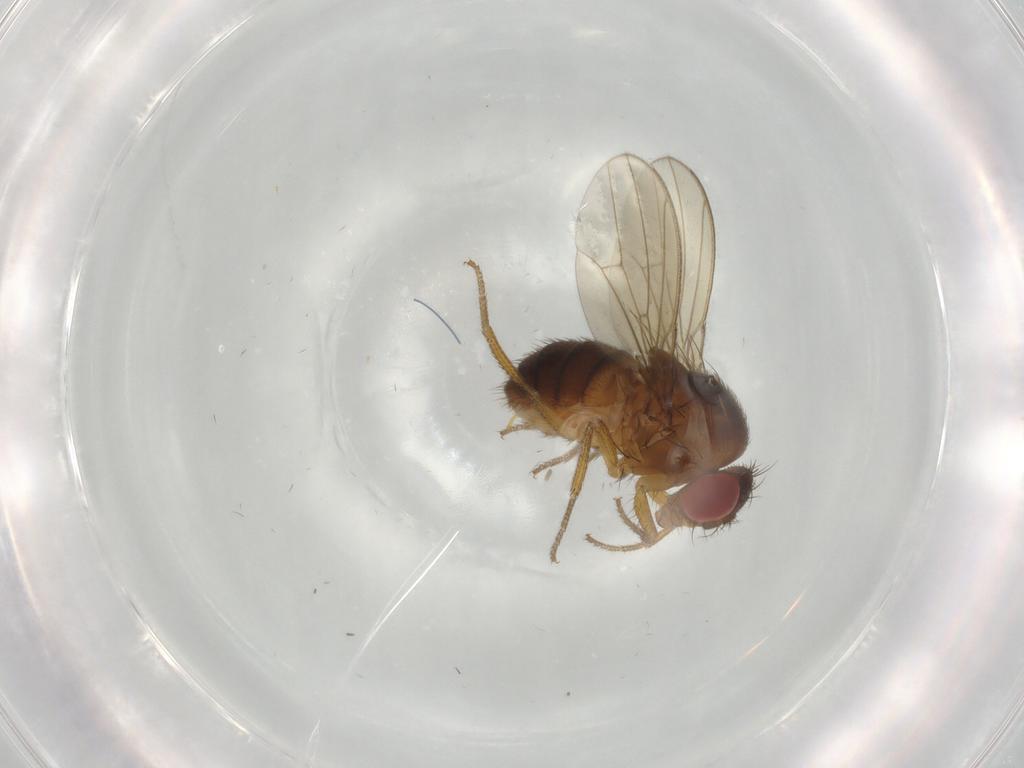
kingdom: Animalia
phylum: Arthropoda
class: Insecta
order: Diptera
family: Drosophilidae
